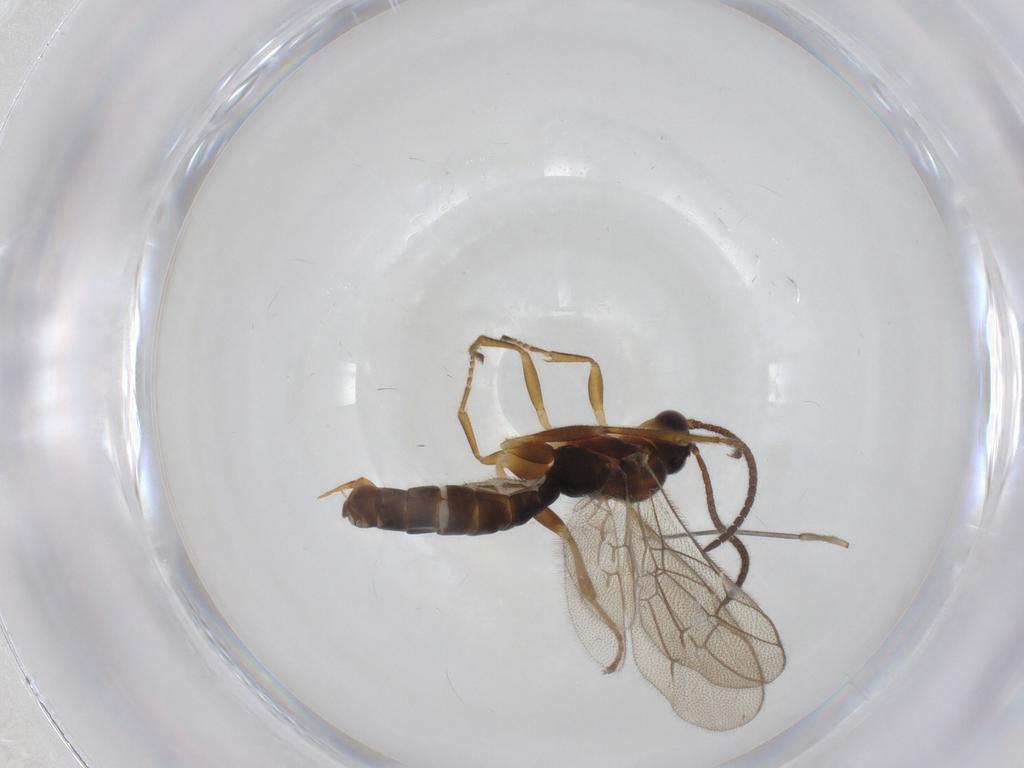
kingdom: Animalia
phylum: Arthropoda
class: Insecta
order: Hymenoptera
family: Ichneumonidae
